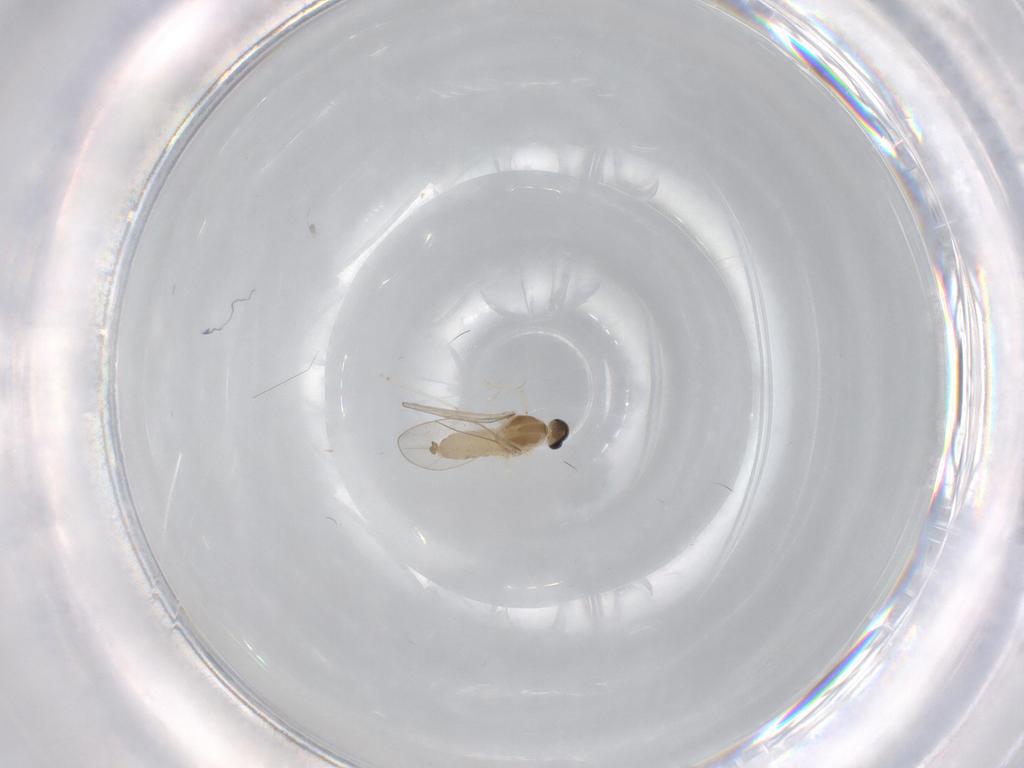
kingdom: Animalia
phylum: Arthropoda
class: Insecta
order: Diptera
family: Cecidomyiidae
